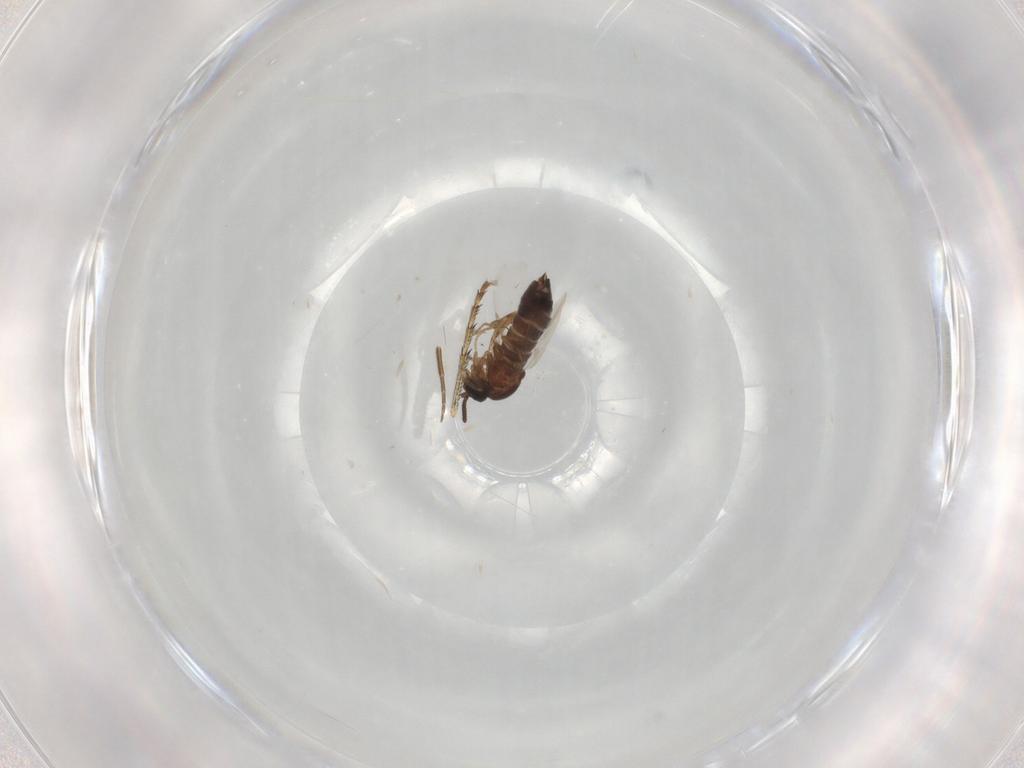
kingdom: Animalia
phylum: Arthropoda
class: Insecta
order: Diptera
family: Scatopsidae
